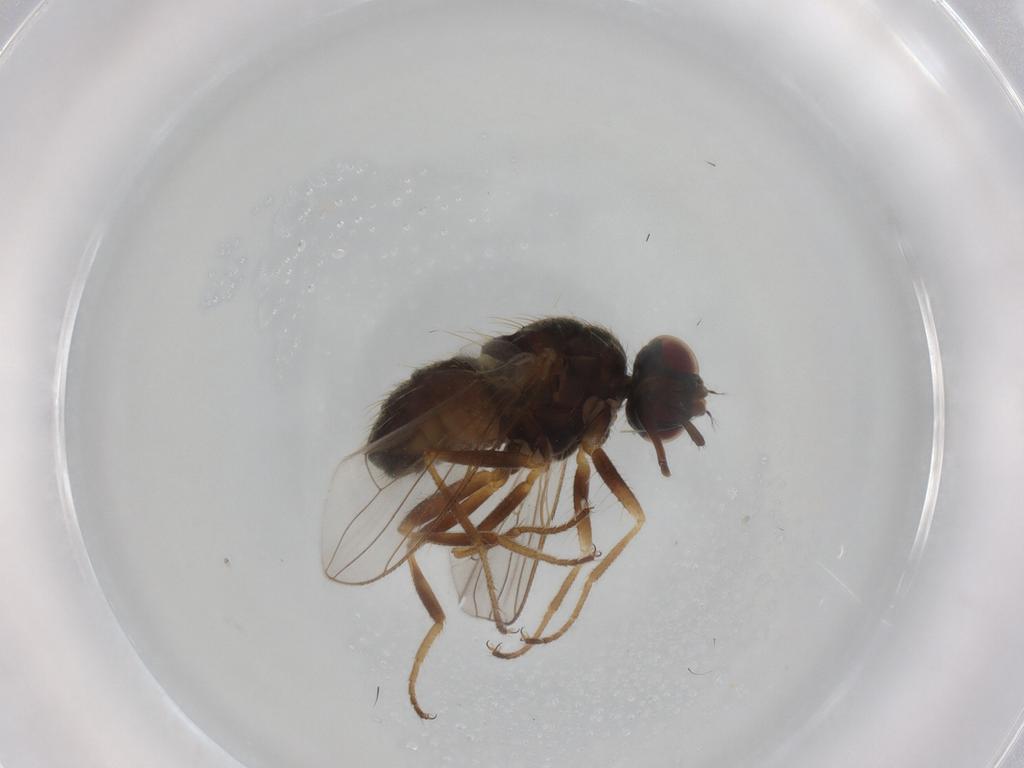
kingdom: Animalia
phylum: Arthropoda
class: Insecta
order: Diptera
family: Muscidae
